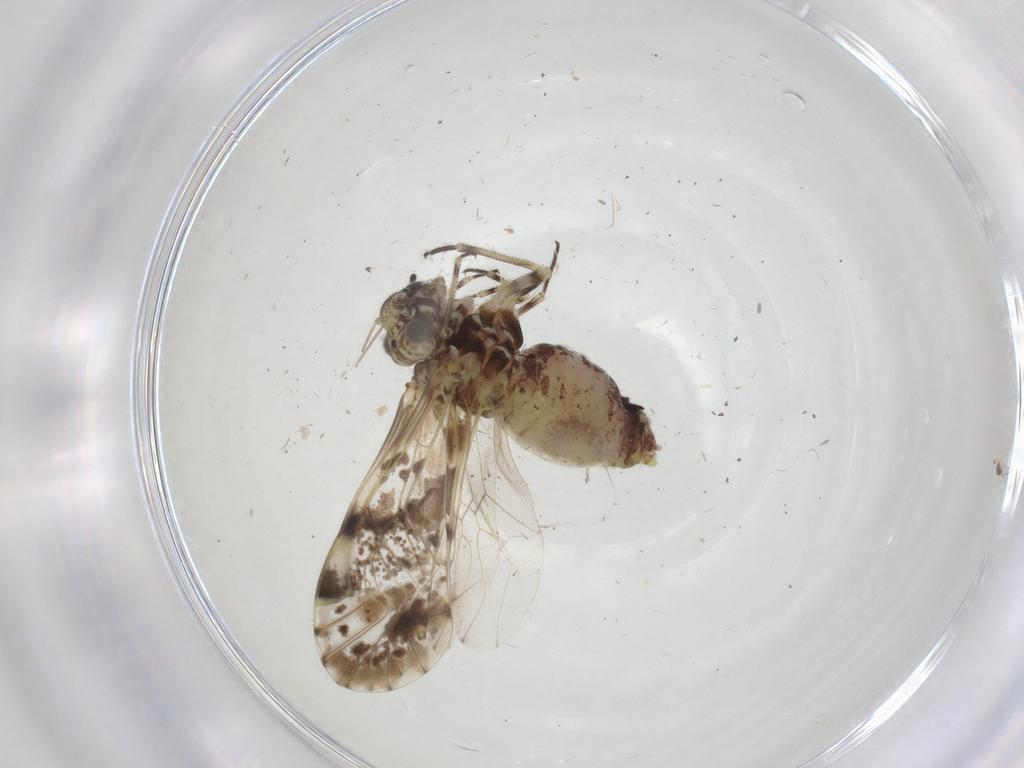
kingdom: Animalia
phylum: Arthropoda
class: Insecta
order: Psocodea
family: Psocidae
